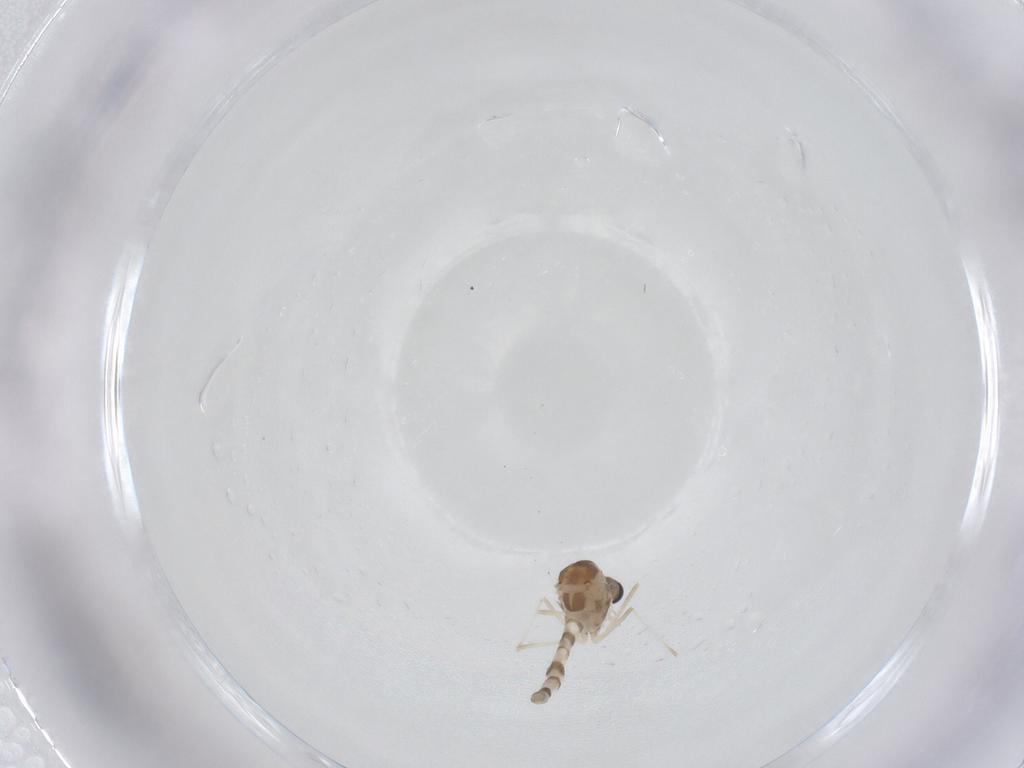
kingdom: Animalia
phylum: Arthropoda
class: Insecta
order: Diptera
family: Chironomidae
